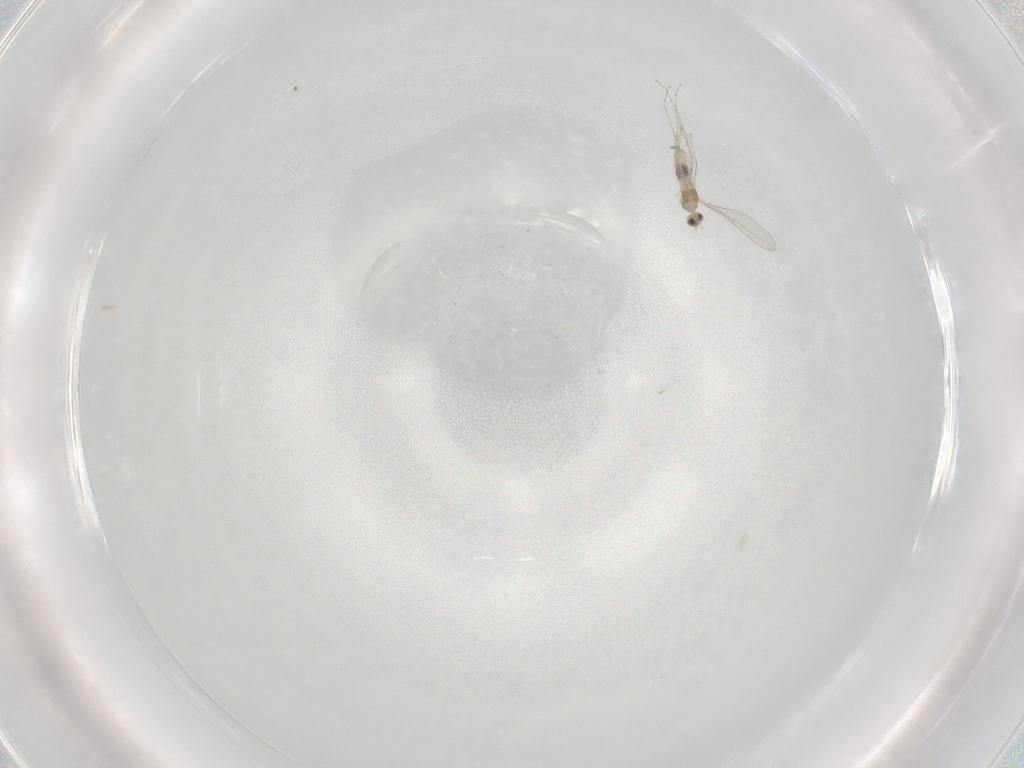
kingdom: Animalia
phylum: Arthropoda
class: Insecta
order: Diptera
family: Cecidomyiidae
